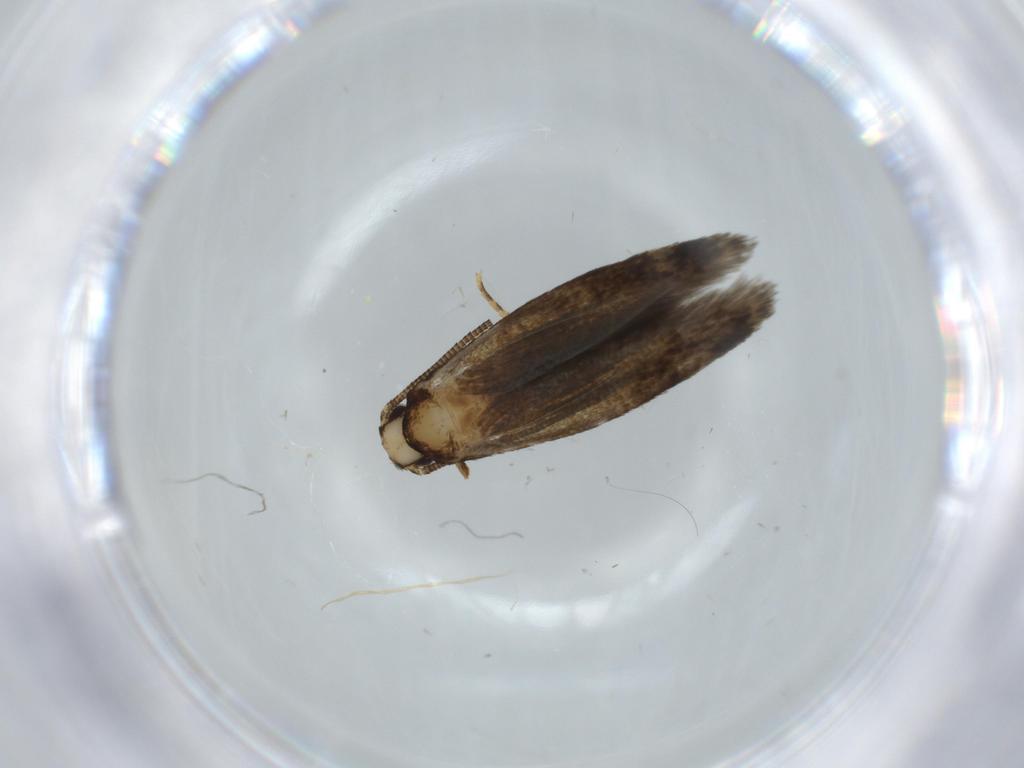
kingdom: Animalia
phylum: Arthropoda
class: Insecta
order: Lepidoptera
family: Tineidae
